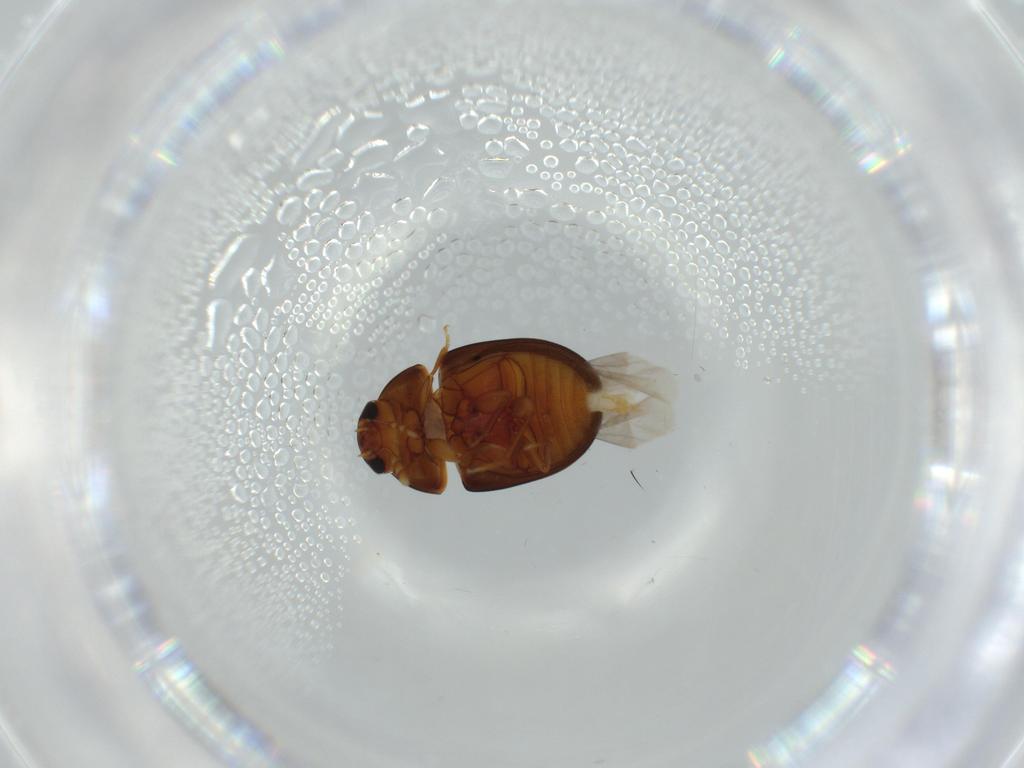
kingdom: Animalia
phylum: Arthropoda
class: Insecta
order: Coleoptera
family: Phalacridae
